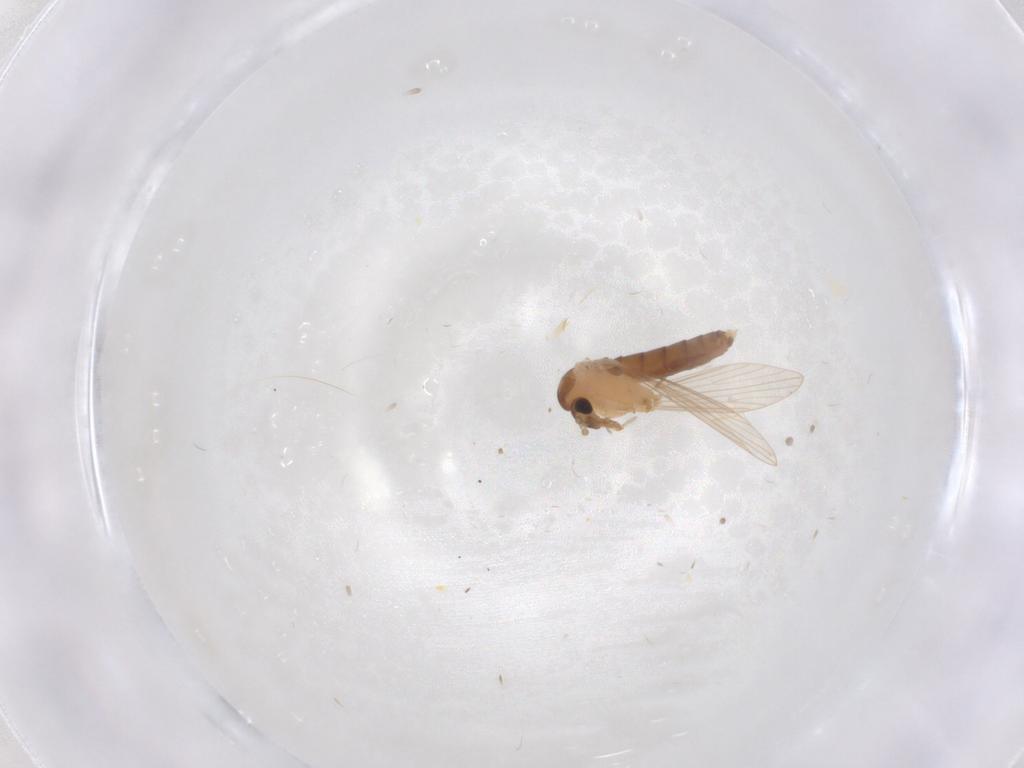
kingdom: Animalia
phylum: Arthropoda
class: Insecta
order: Diptera
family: Psychodidae
